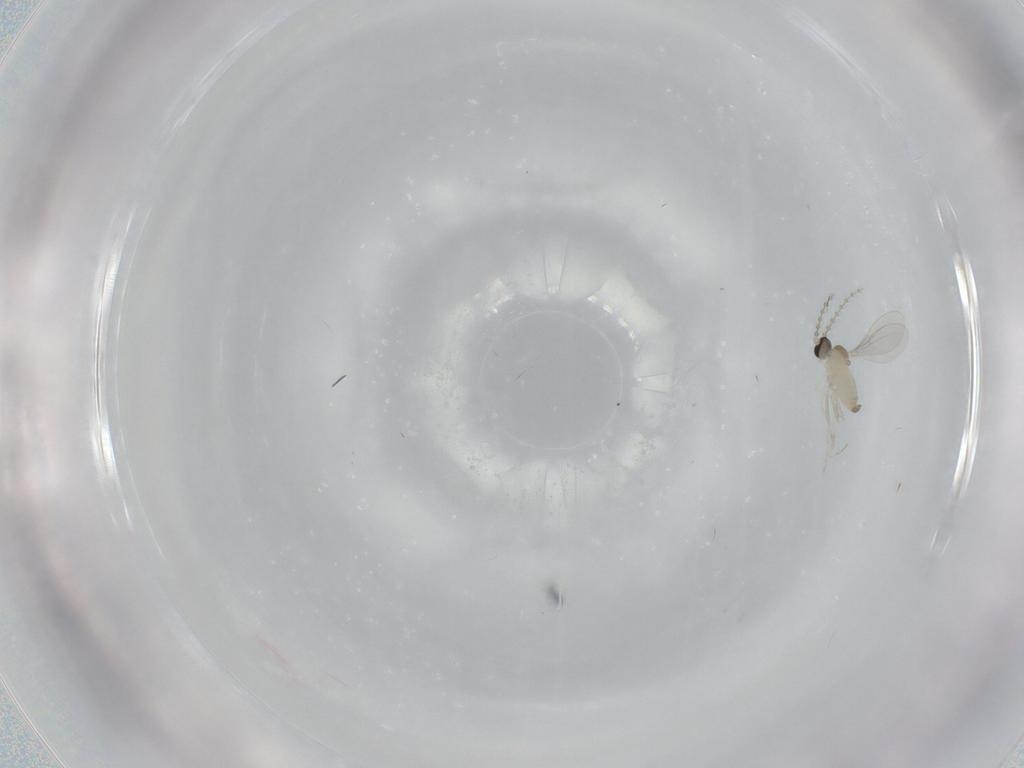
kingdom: Animalia
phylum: Arthropoda
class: Insecta
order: Diptera
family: Cecidomyiidae
